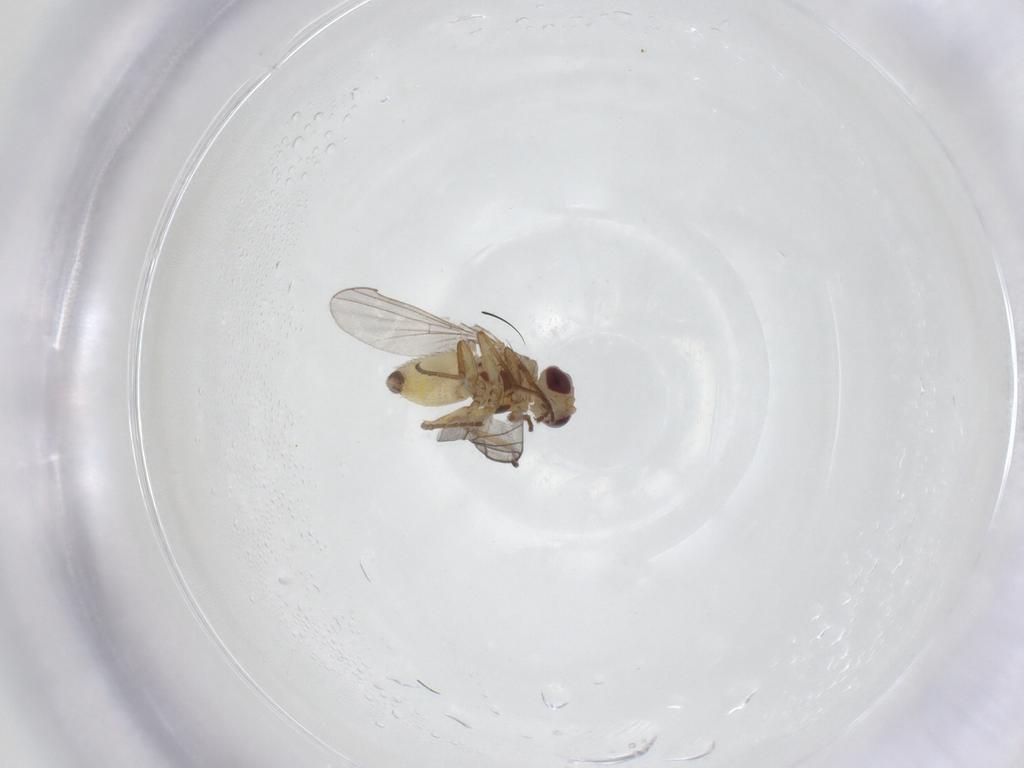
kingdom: Animalia
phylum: Arthropoda
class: Insecta
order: Diptera
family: Agromyzidae
